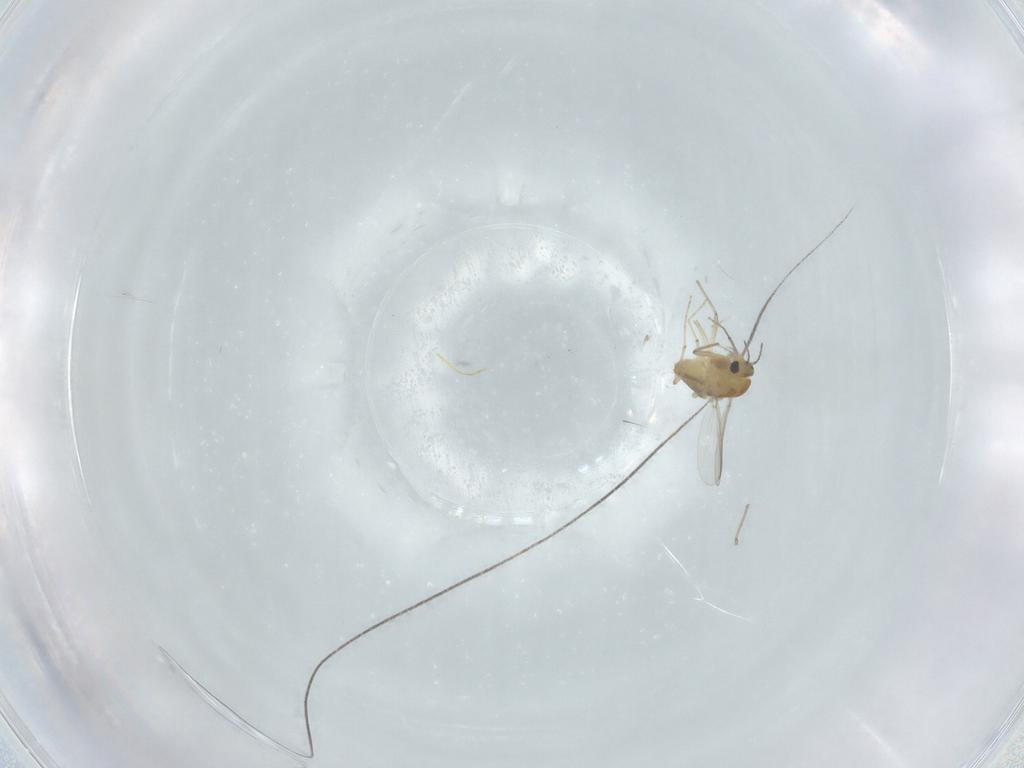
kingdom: Animalia
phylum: Arthropoda
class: Insecta
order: Diptera
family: Chironomidae
